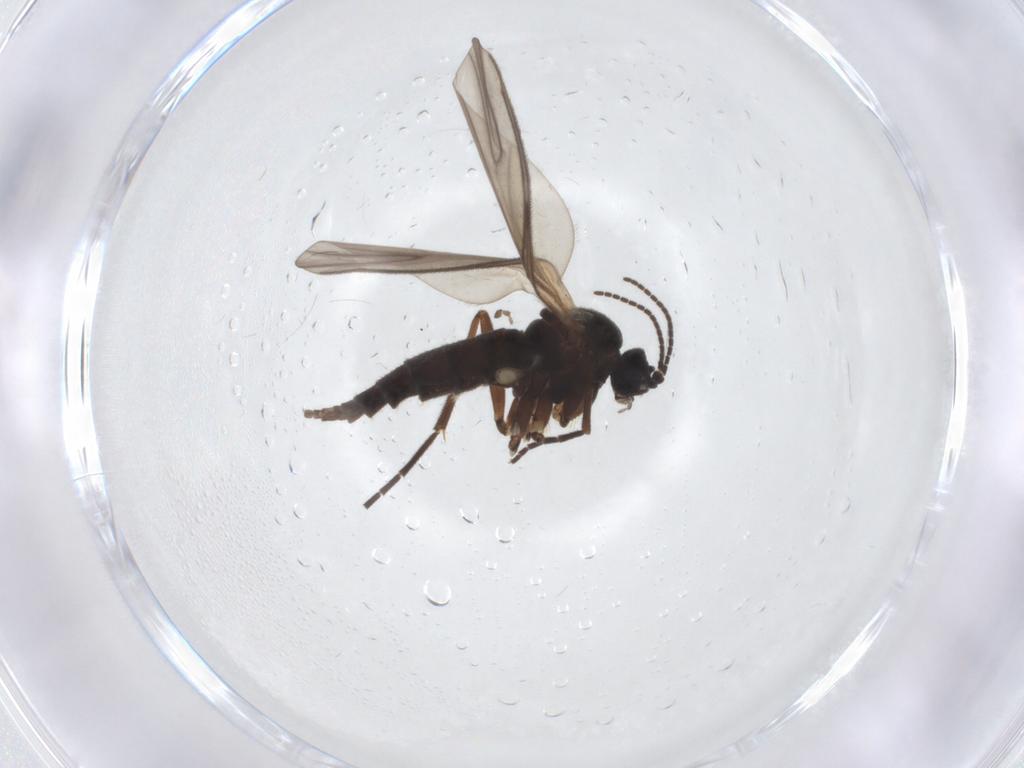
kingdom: Animalia
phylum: Arthropoda
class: Insecta
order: Diptera
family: Sciaridae
